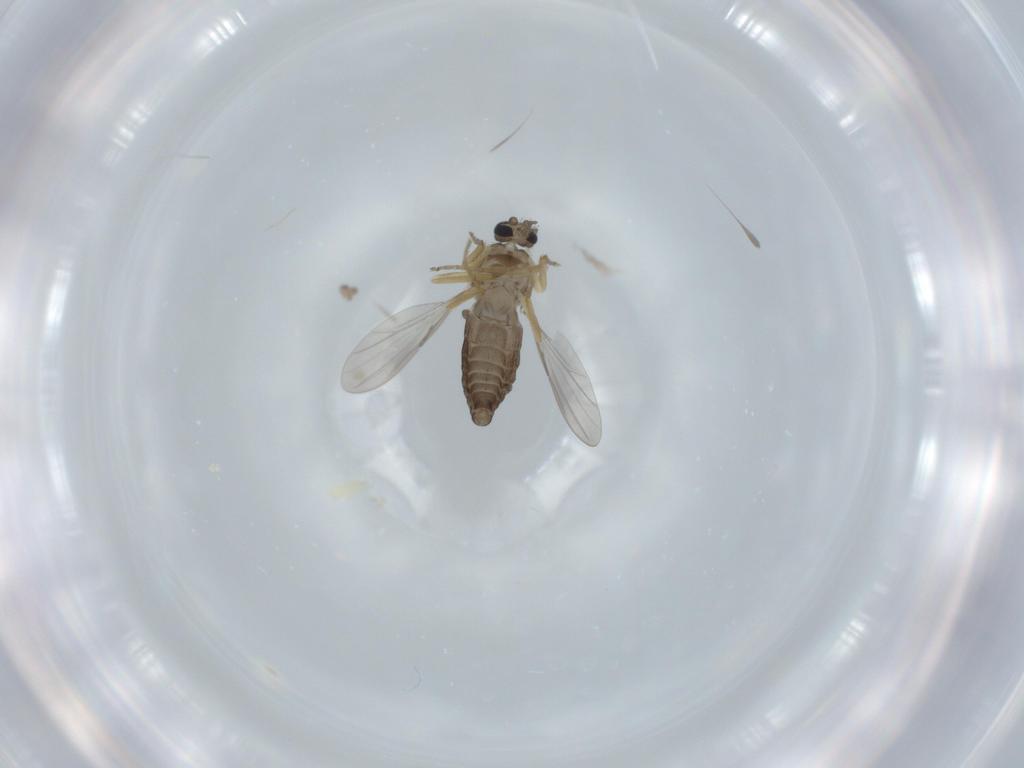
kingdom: Animalia
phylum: Arthropoda
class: Insecta
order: Diptera
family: Ceratopogonidae
